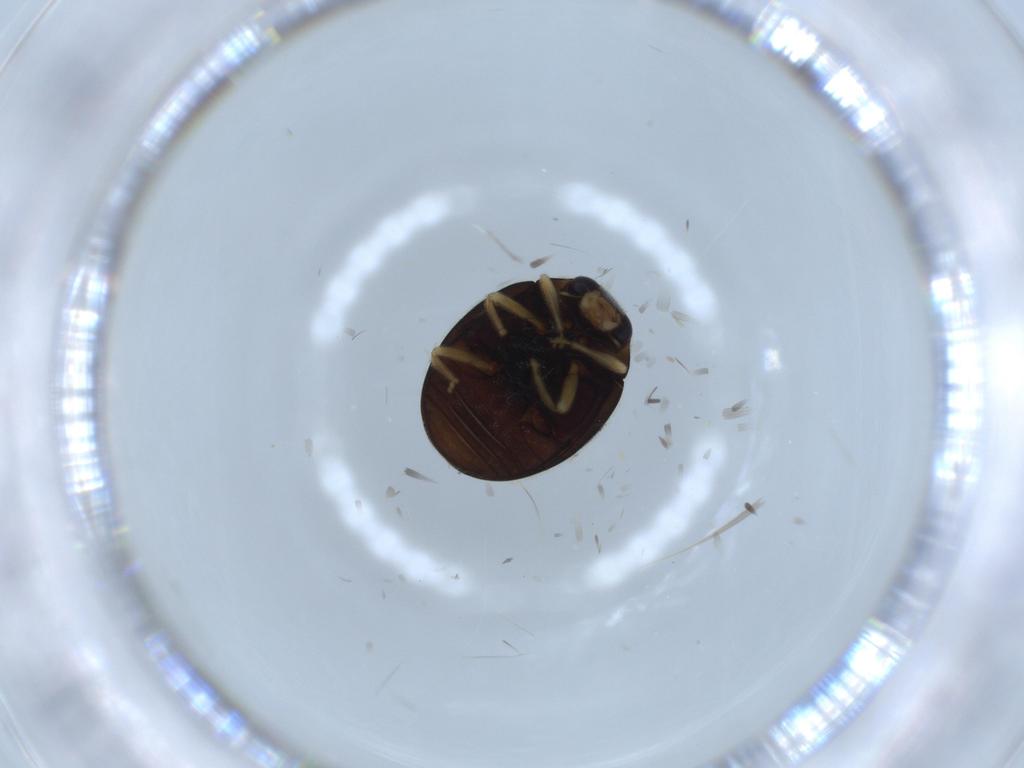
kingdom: Animalia
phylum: Arthropoda
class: Insecta
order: Coleoptera
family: Coccinellidae
